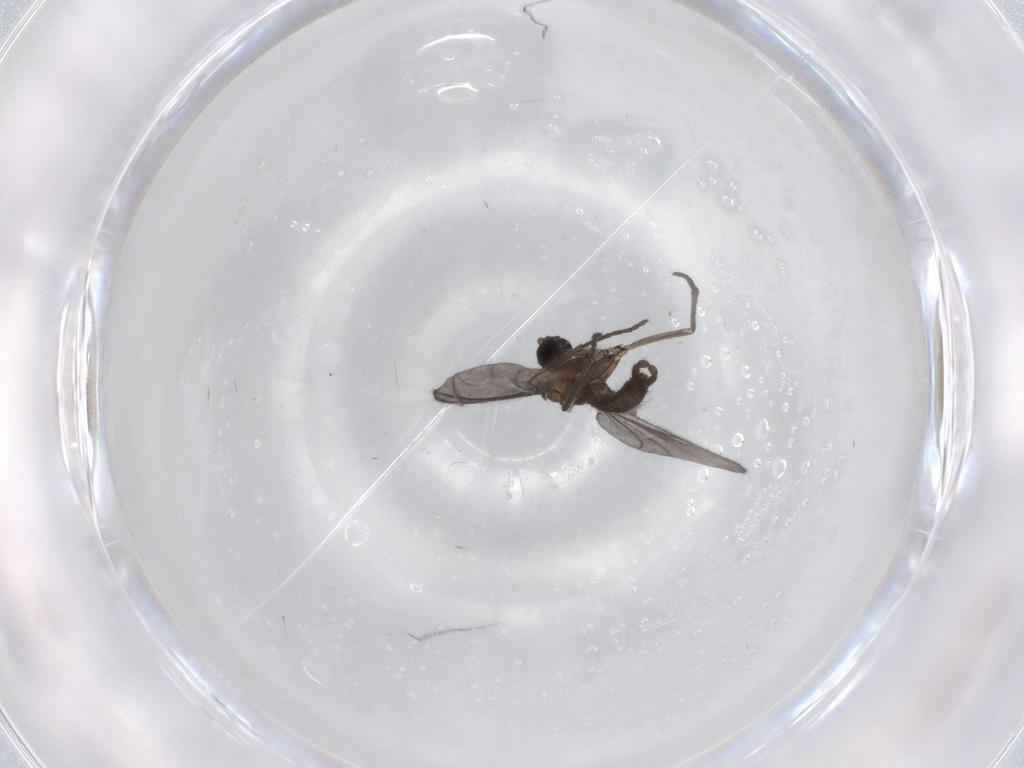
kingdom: Animalia
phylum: Arthropoda
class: Insecta
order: Diptera
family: Sciaridae
